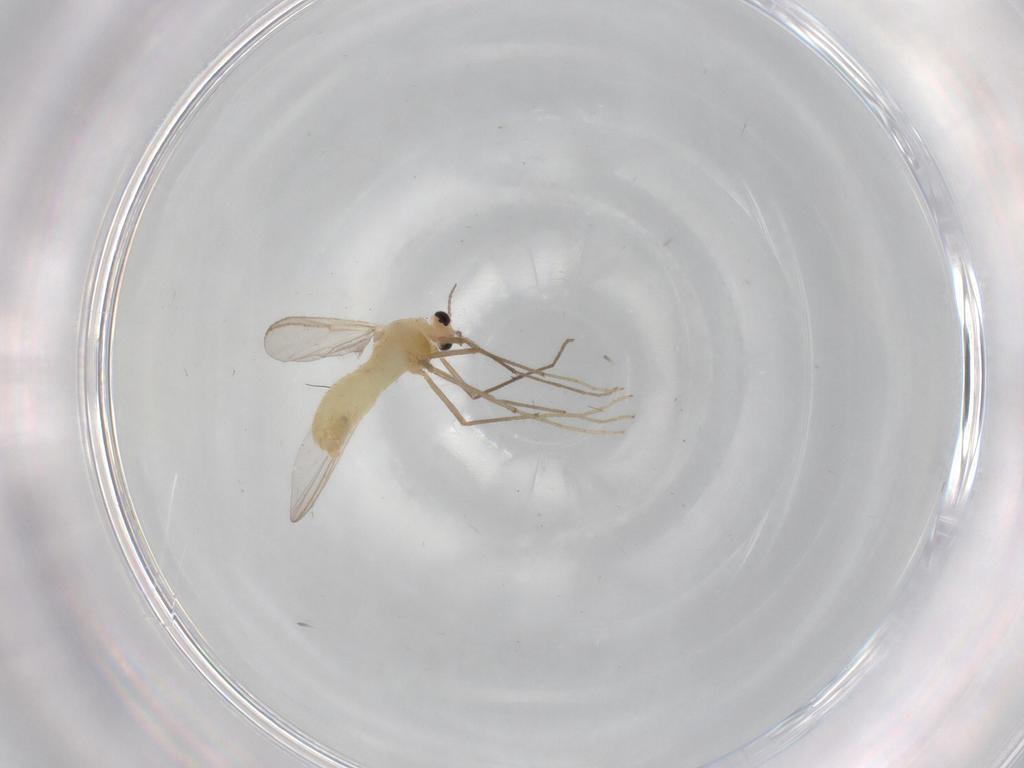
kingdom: Animalia
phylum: Arthropoda
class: Insecta
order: Diptera
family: Chironomidae
